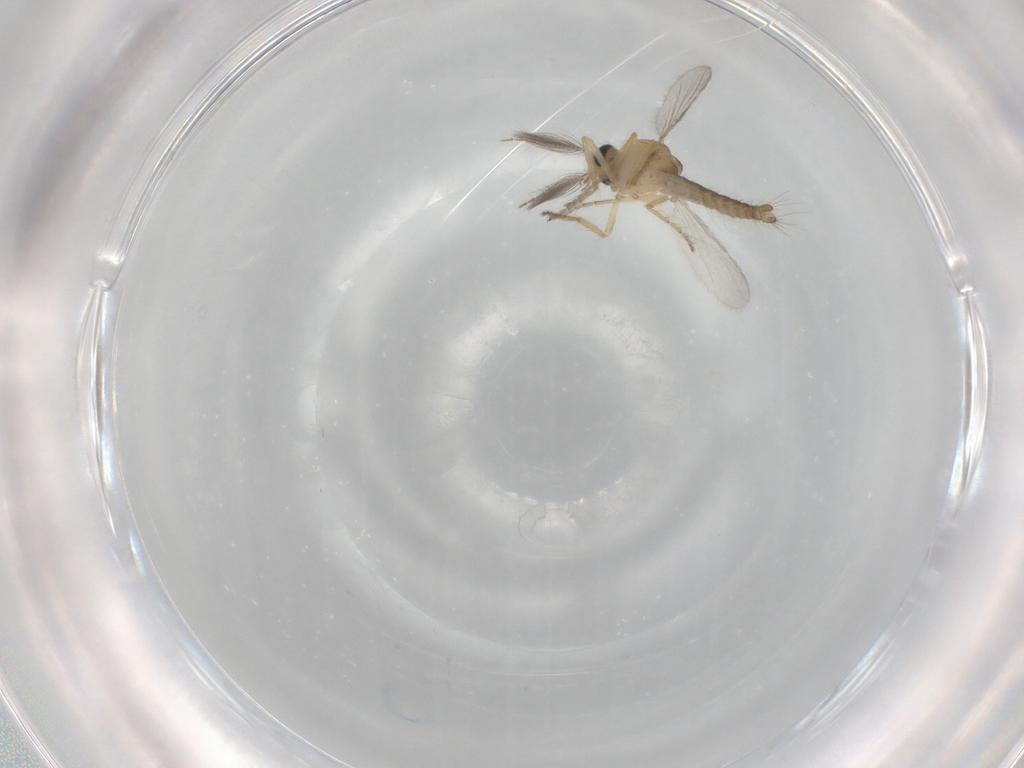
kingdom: Animalia
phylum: Arthropoda
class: Insecta
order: Diptera
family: Ceratopogonidae
